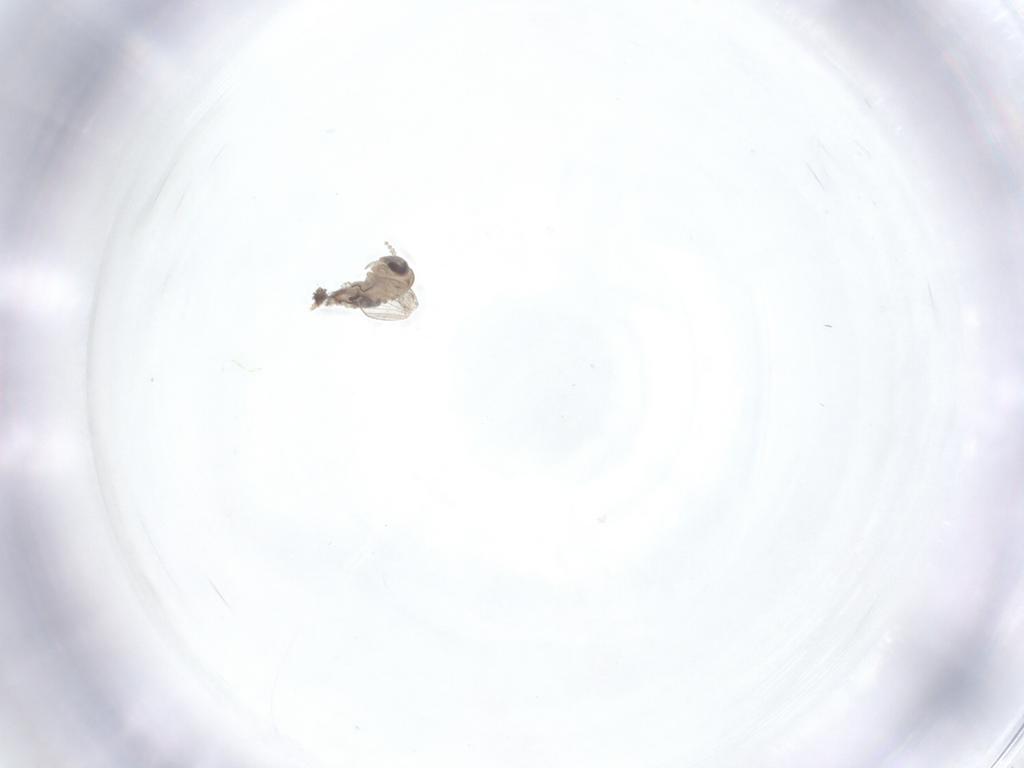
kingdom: Animalia
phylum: Arthropoda
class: Insecta
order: Diptera
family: Psychodidae
